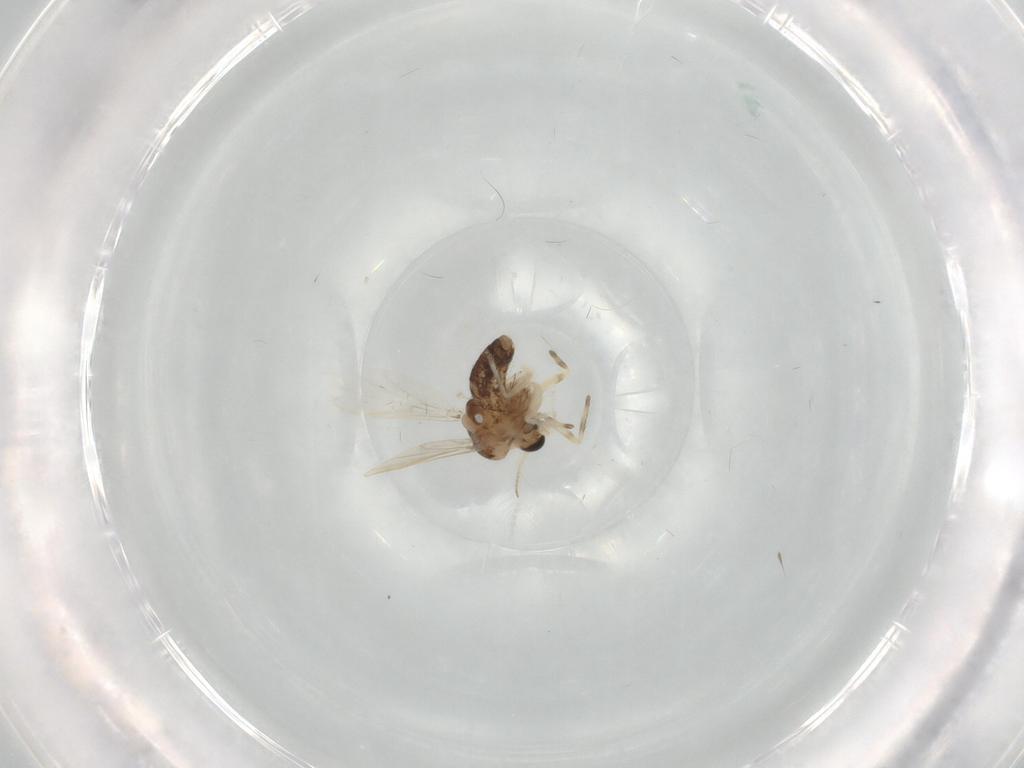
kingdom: Animalia
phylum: Arthropoda
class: Insecta
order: Diptera
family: Chironomidae
